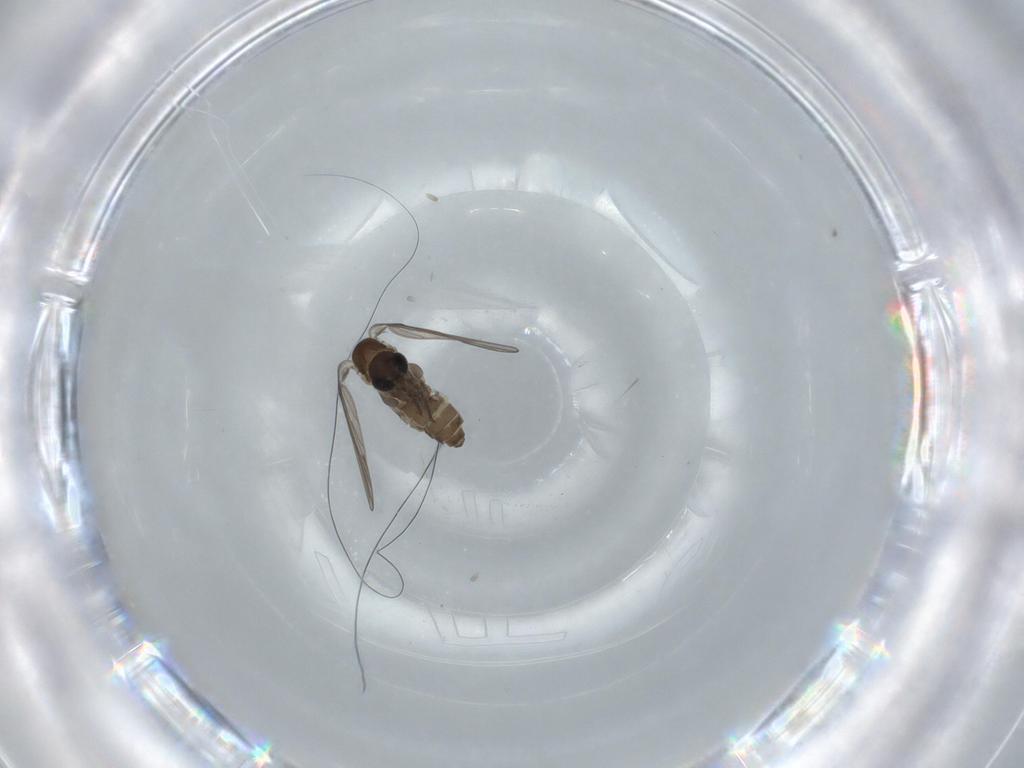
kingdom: Animalia
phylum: Arthropoda
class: Insecta
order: Diptera
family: Psychodidae
